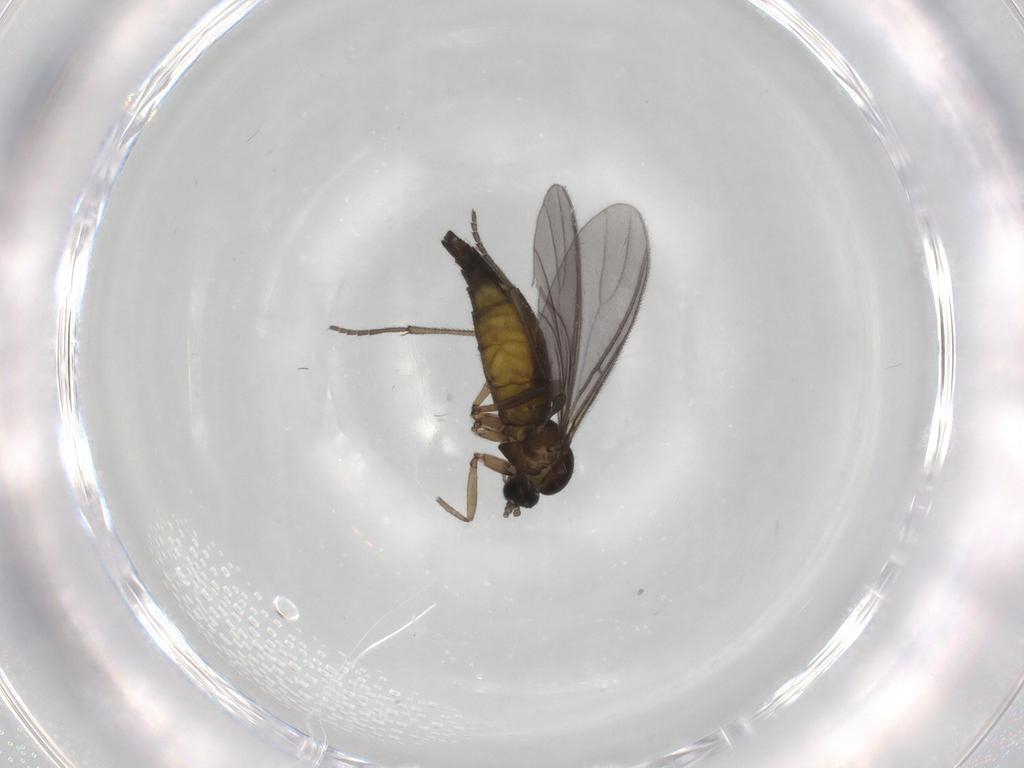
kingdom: Animalia
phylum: Arthropoda
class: Insecta
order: Diptera
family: Sciaridae
